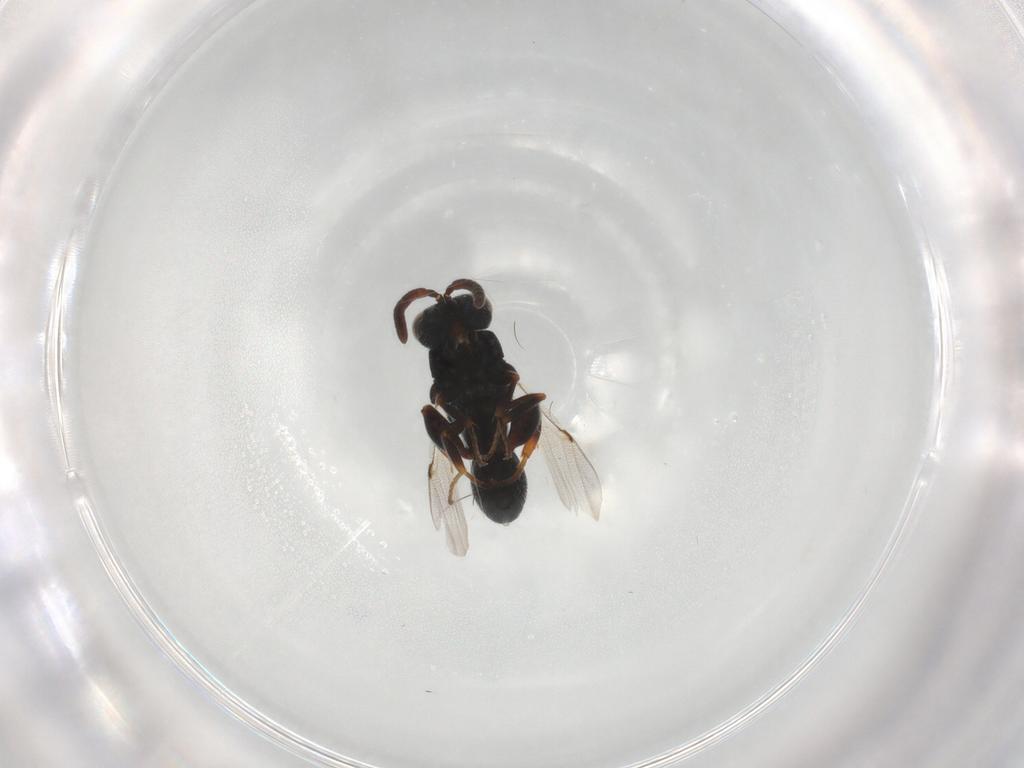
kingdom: Animalia
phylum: Arthropoda
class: Insecta
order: Hymenoptera
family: Chalcididae
